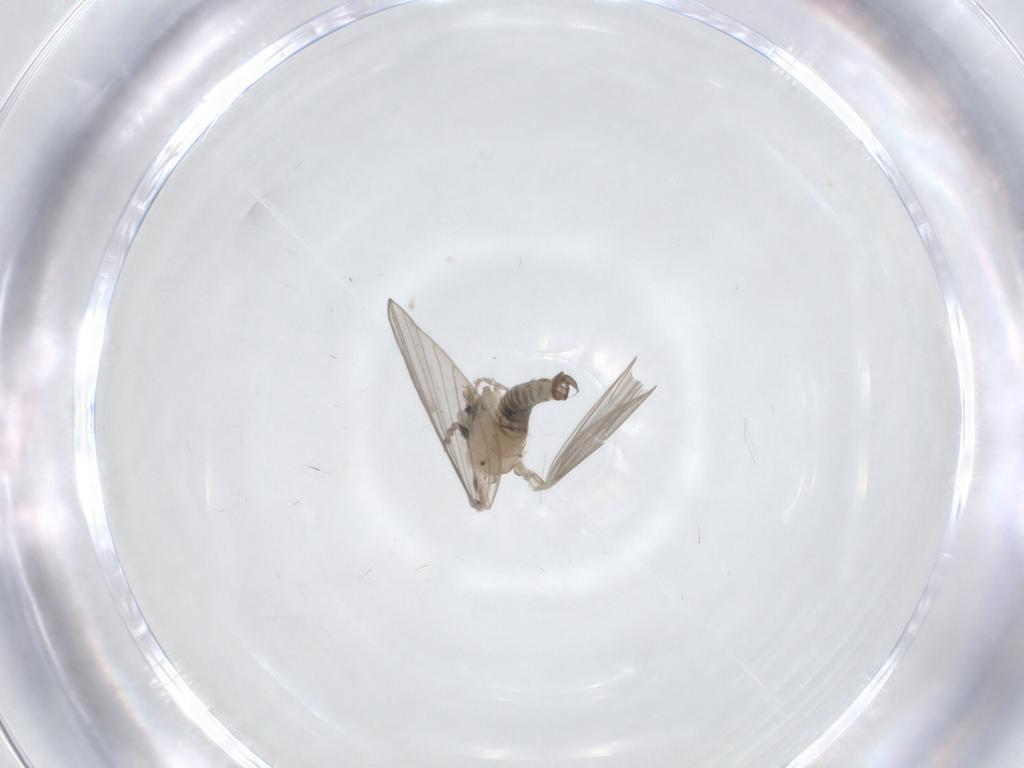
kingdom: Animalia
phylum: Arthropoda
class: Insecta
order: Diptera
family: Psychodidae
